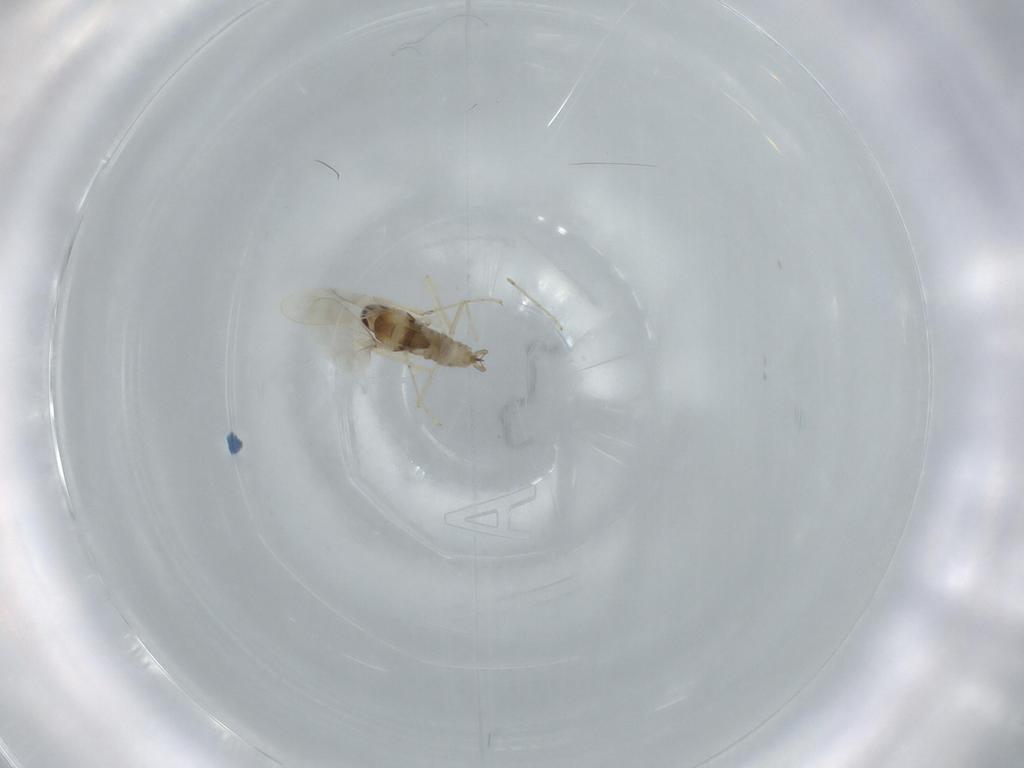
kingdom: Animalia
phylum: Arthropoda
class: Insecta
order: Diptera
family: Cecidomyiidae
